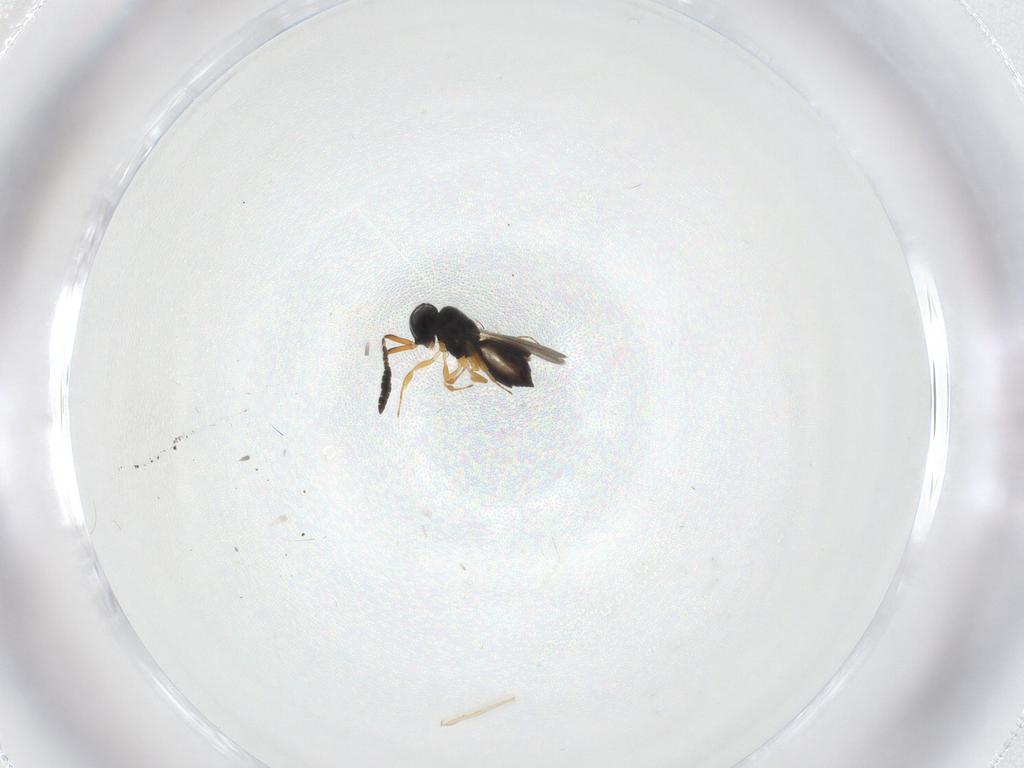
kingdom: Animalia
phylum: Arthropoda
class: Insecta
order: Hymenoptera
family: Scelionidae
